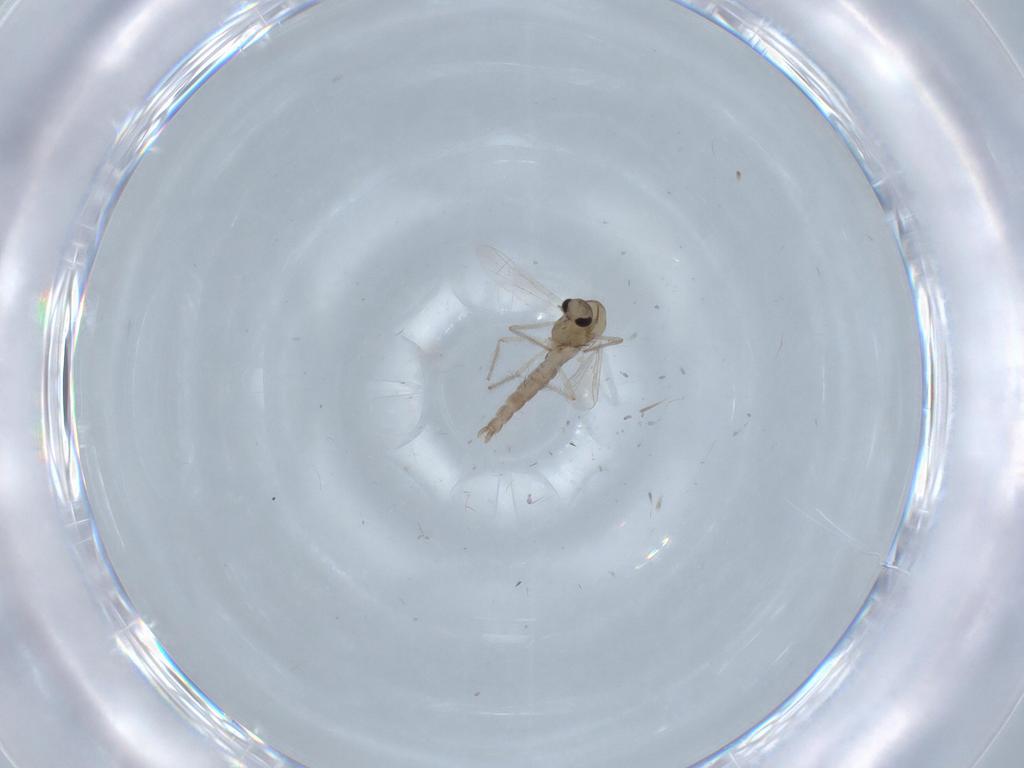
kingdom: Animalia
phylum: Arthropoda
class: Insecta
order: Diptera
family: Chironomidae
